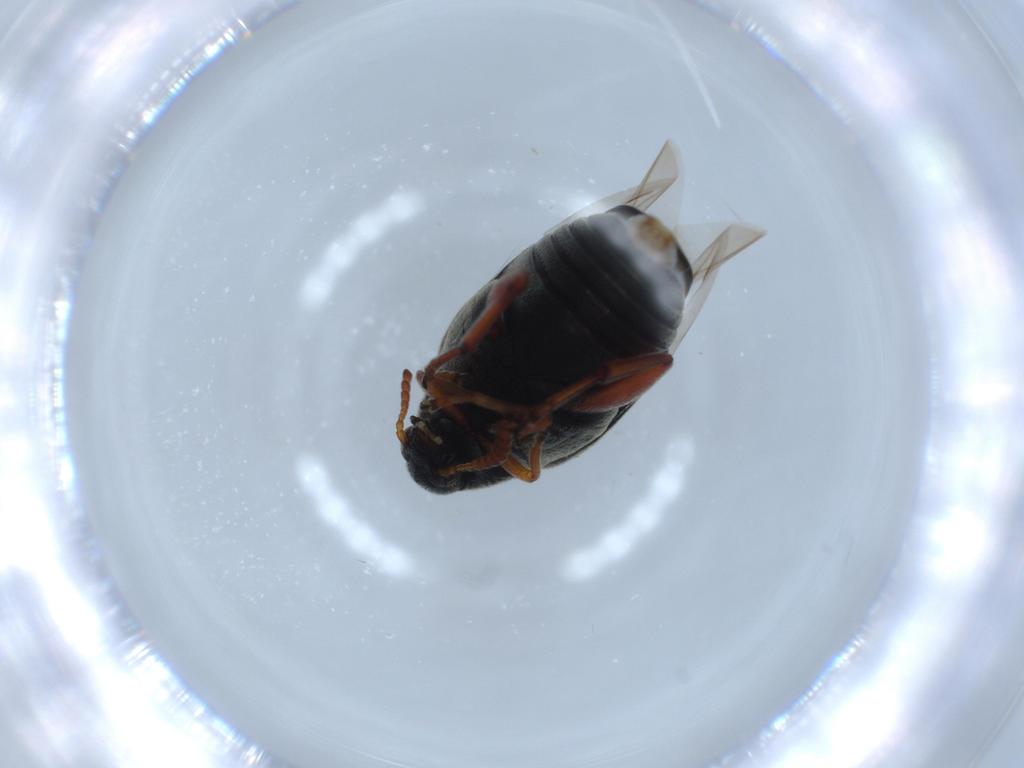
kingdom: Animalia
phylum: Arthropoda
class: Insecta
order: Coleoptera
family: Chrysomelidae
